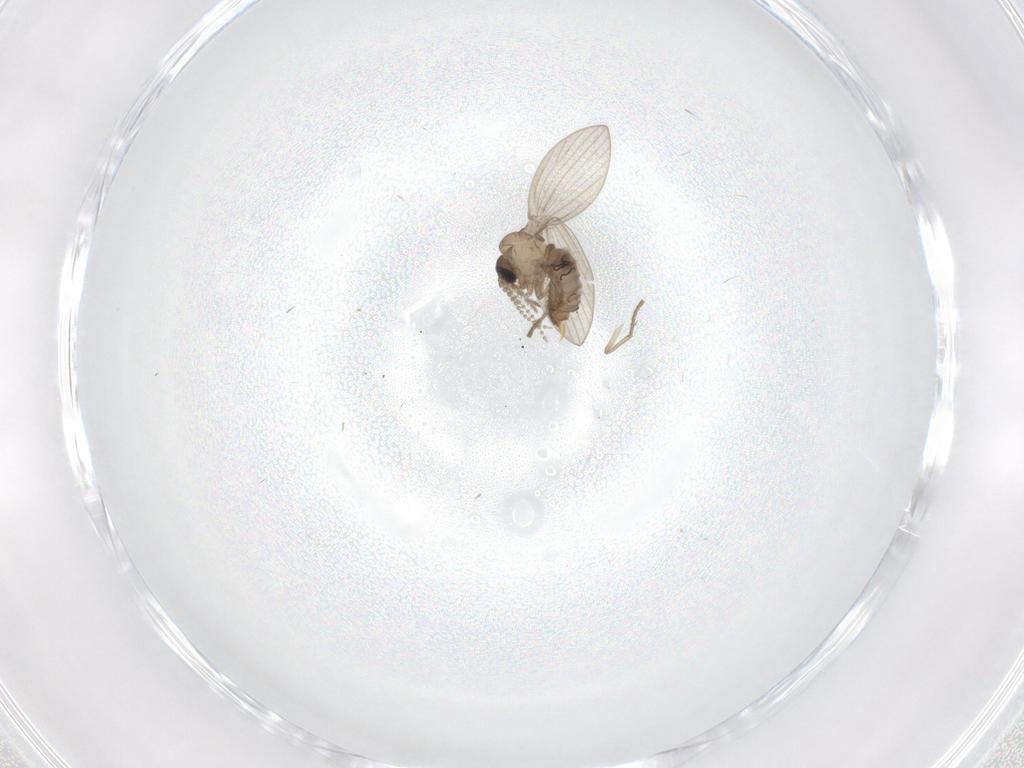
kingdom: Animalia
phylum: Arthropoda
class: Insecta
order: Diptera
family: Psychodidae
